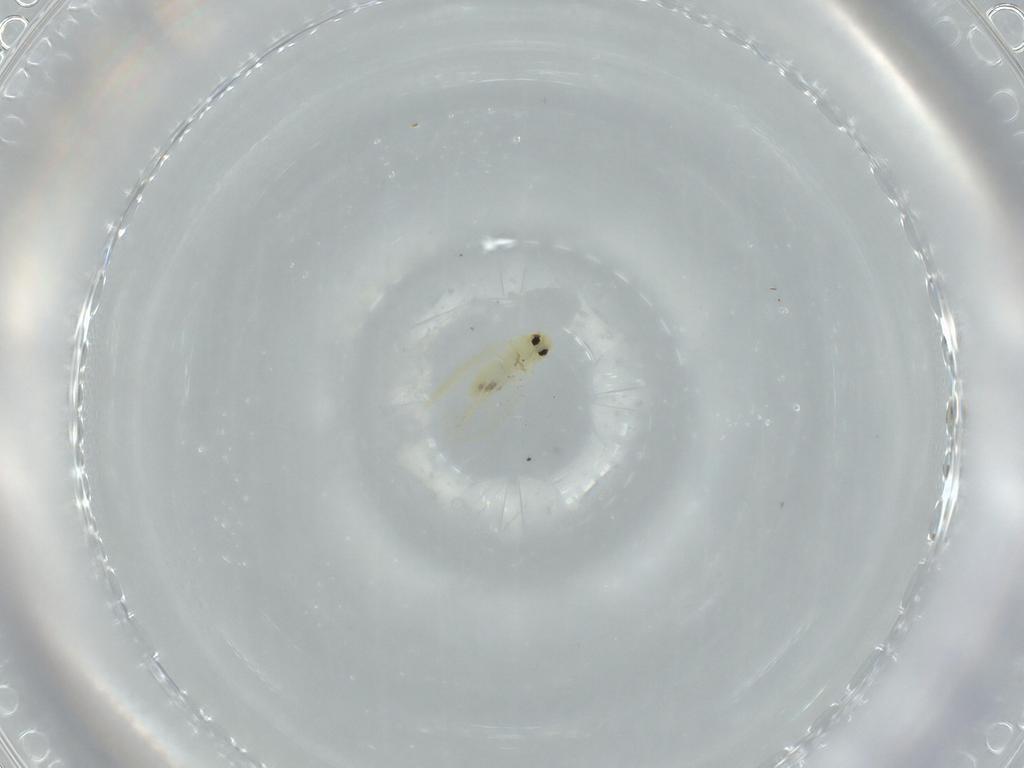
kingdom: Animalia
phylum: Arthropoda
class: Insecta
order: Hemiptera
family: Aleyrodidae
